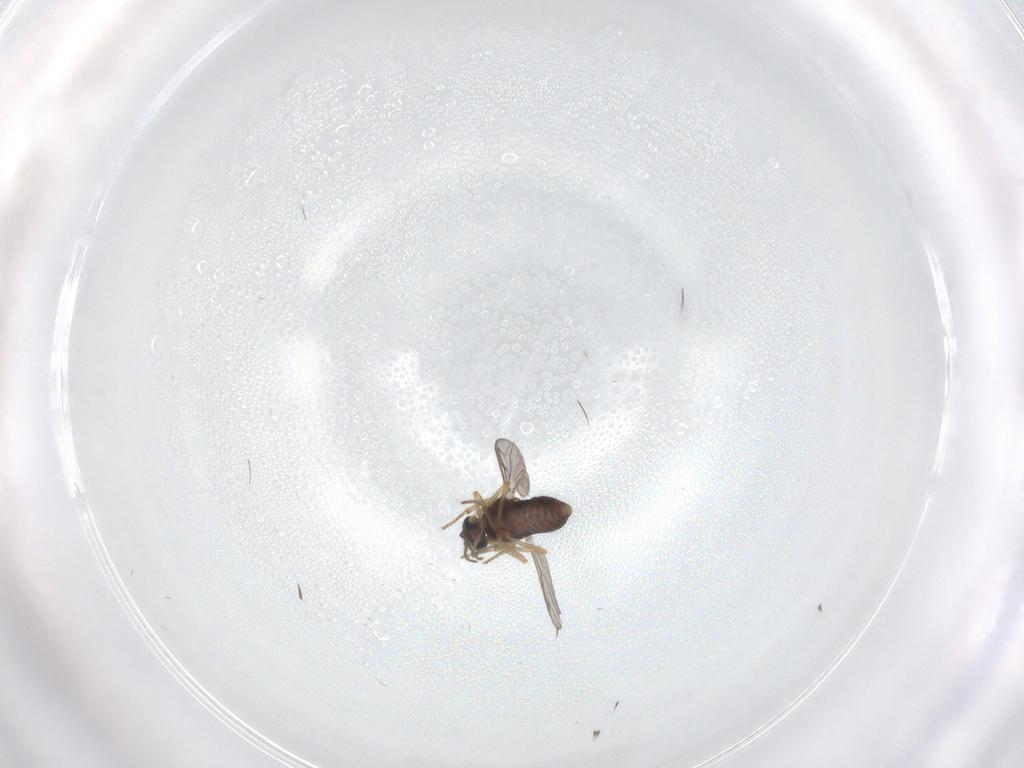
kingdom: Animalia
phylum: Arthropoda
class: Insecta
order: Diptera
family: Ceratopogonidae
